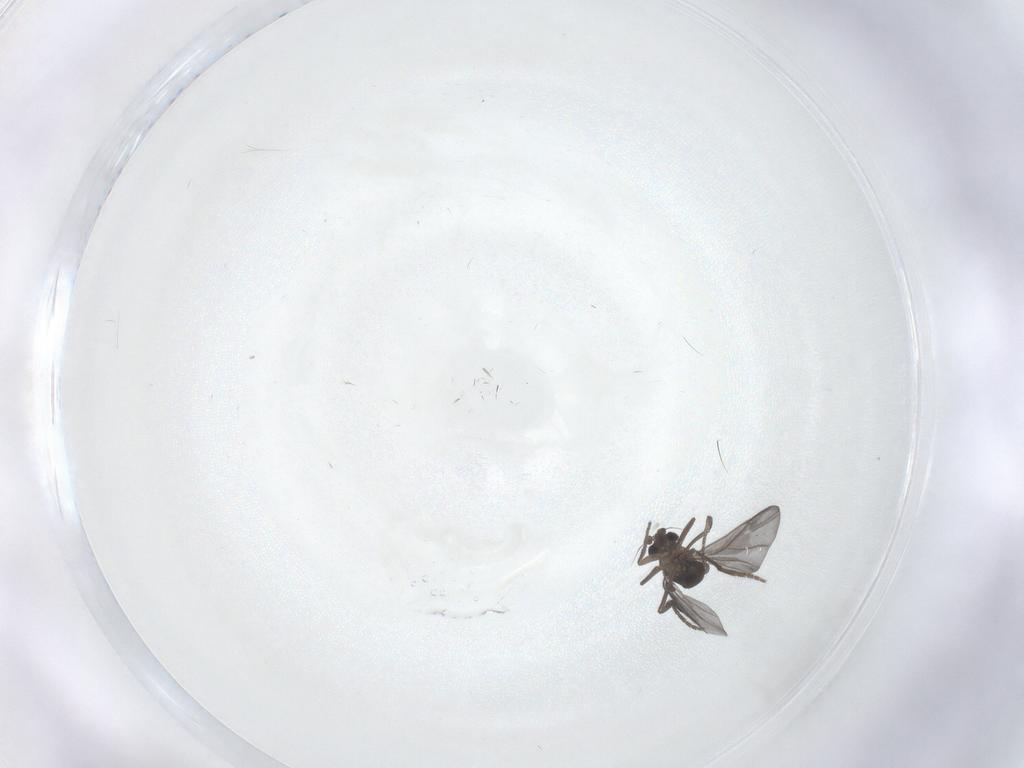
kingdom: Animalia
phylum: Arthropoda
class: Insecta
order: Diptera
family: Phoridae
